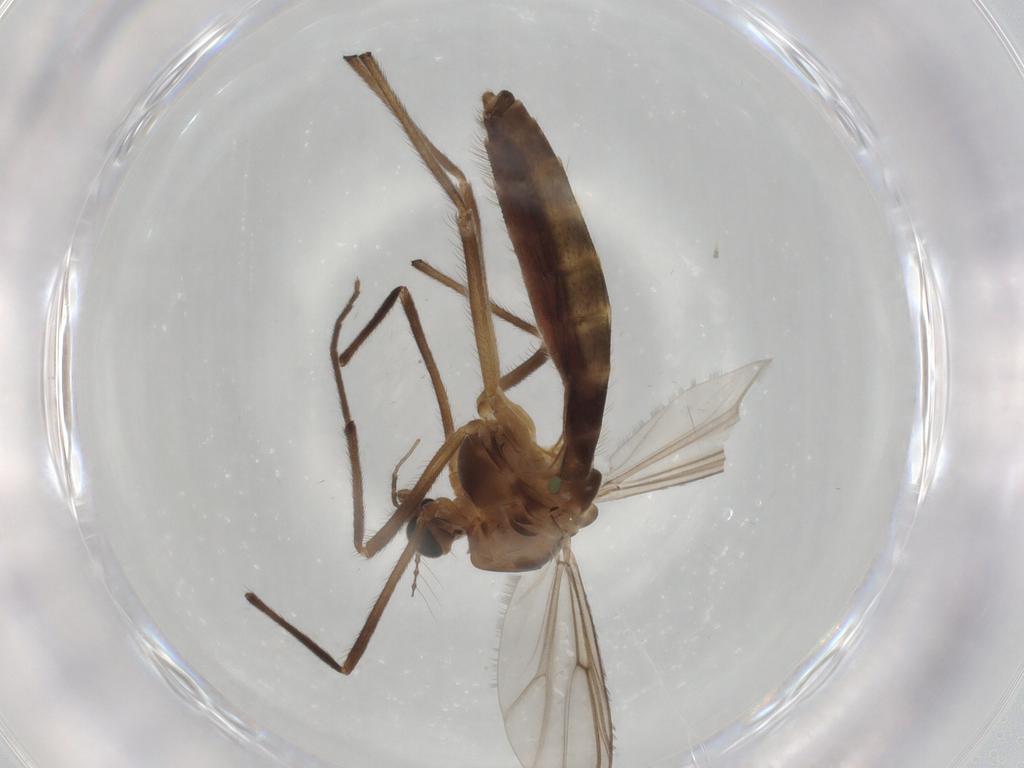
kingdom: Animalia
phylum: Arthropoda
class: Insecta
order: Diptera
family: Chironomidae
